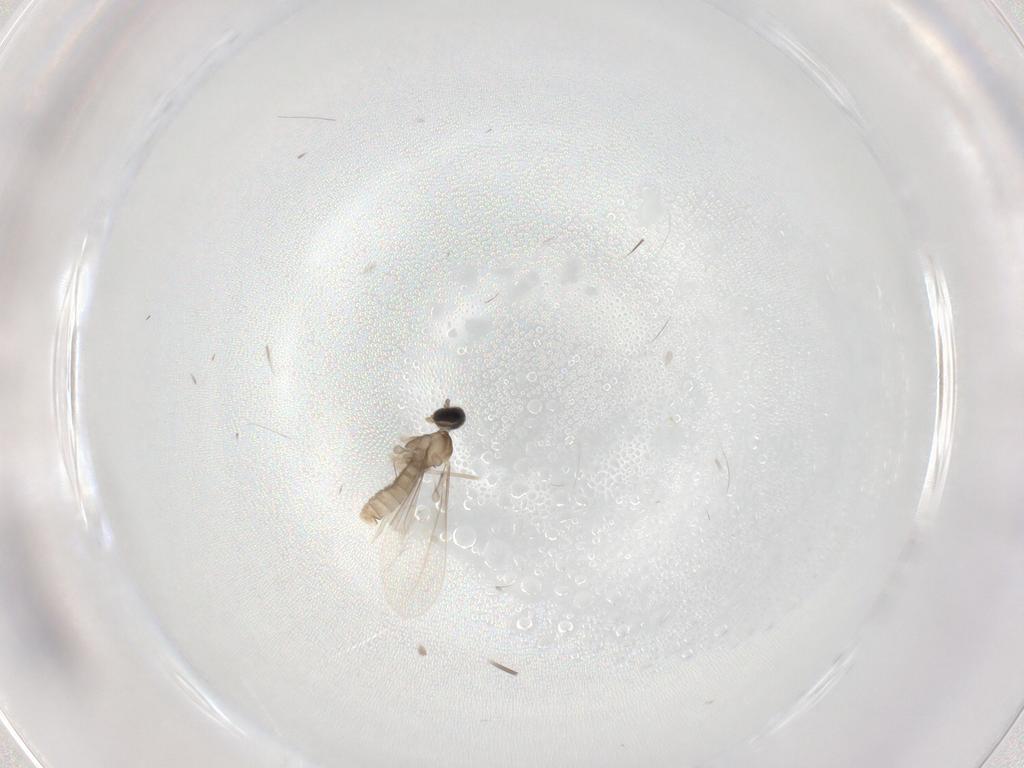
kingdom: Animalia
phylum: Arthropoda
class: Insecta
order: Diptera
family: Cecidomyiidae
